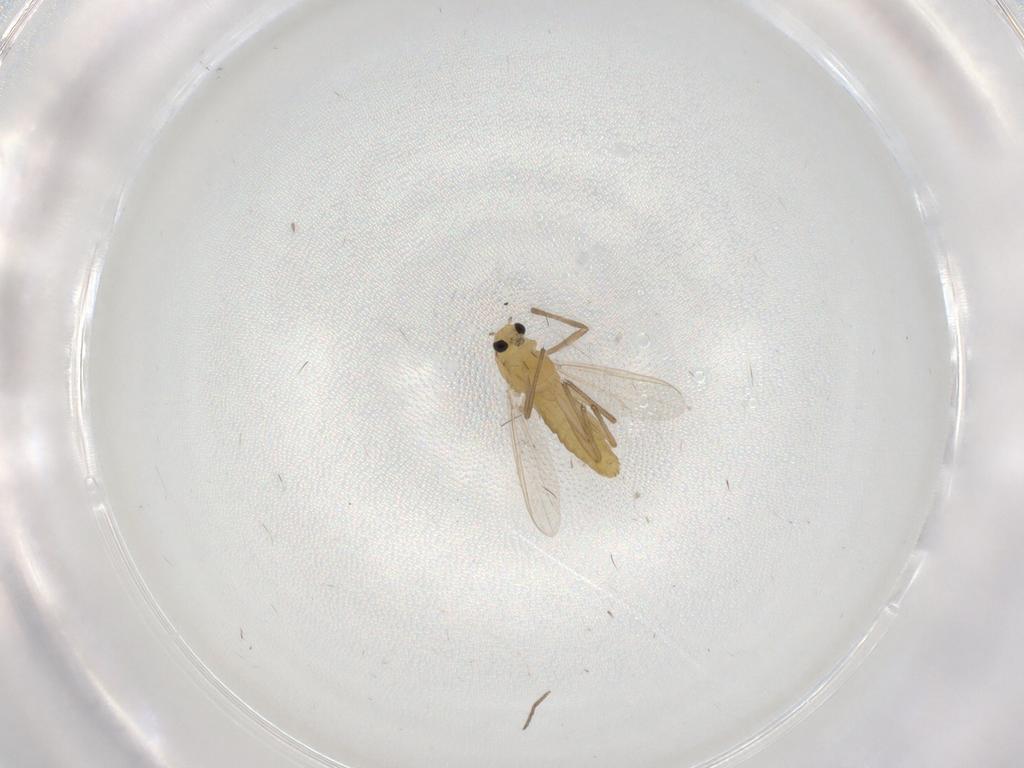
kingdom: Animalia
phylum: Arthropoda
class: Insecta
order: Diptera
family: Chironomidae
